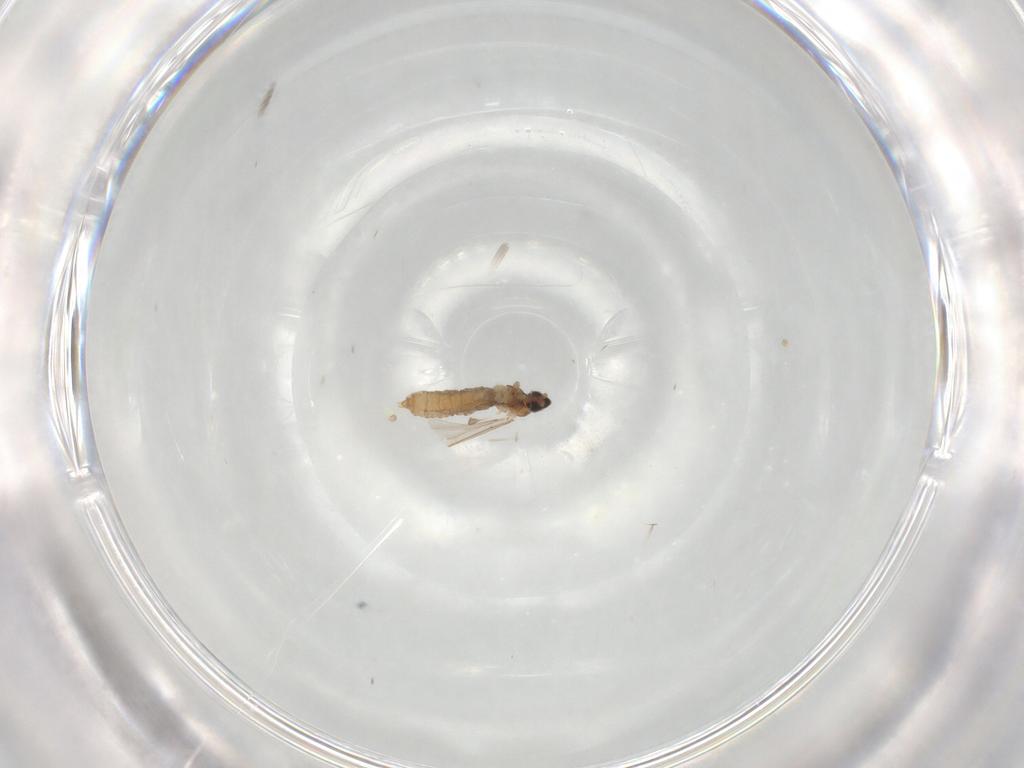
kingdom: Animalia
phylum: Arthropoda
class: Insecta
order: Diptera
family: Cecidomyiidae
